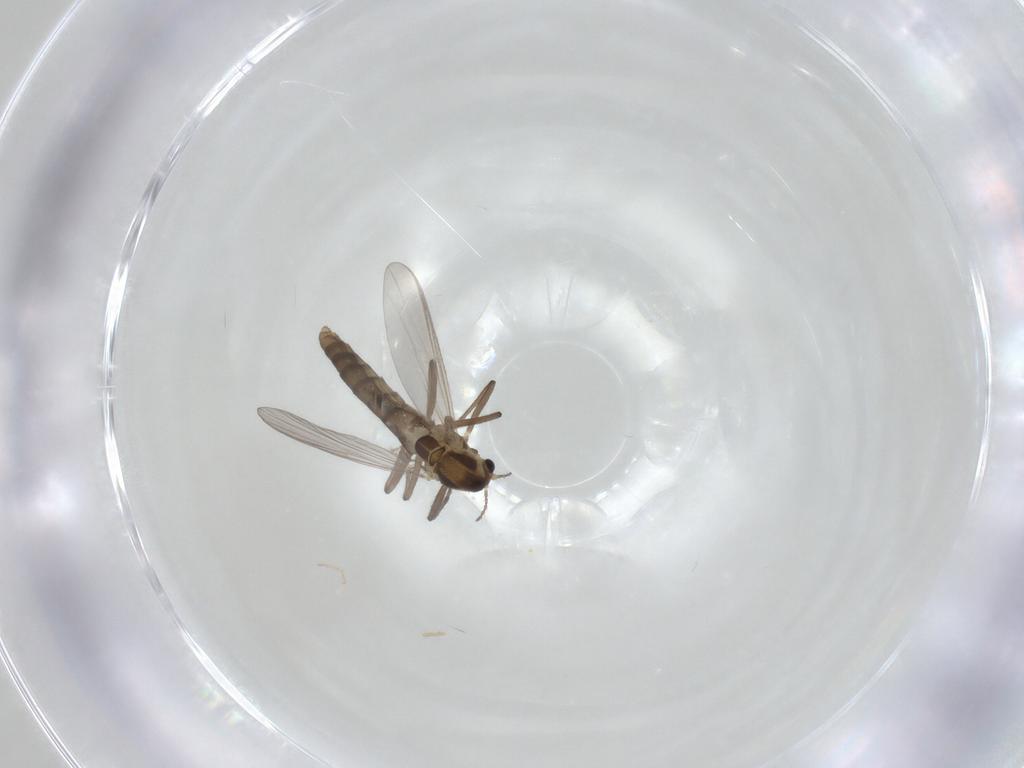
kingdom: Animalia
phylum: Arthropoda
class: Insecta
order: Diptera
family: Chironomidae
